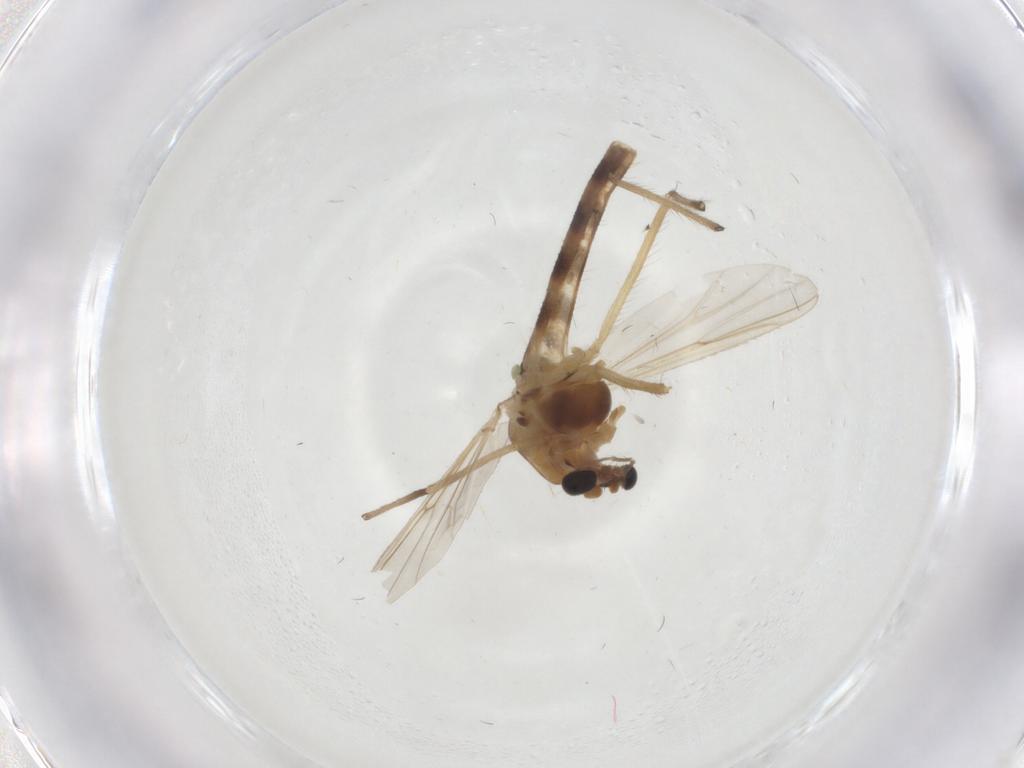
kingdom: Animalia
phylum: Arthropoda
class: Insecta
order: Diptera
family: Chironomidae
